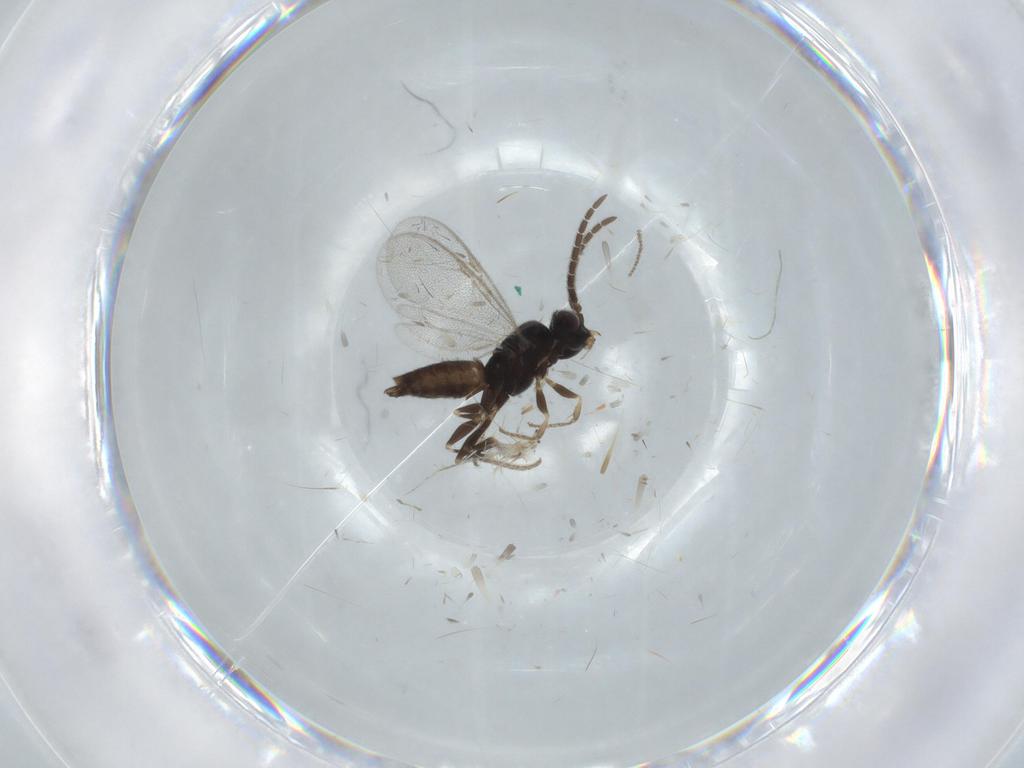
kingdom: Animalia
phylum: Arthropoda
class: Insecta
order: Hymenoptera
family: Dryinidae
